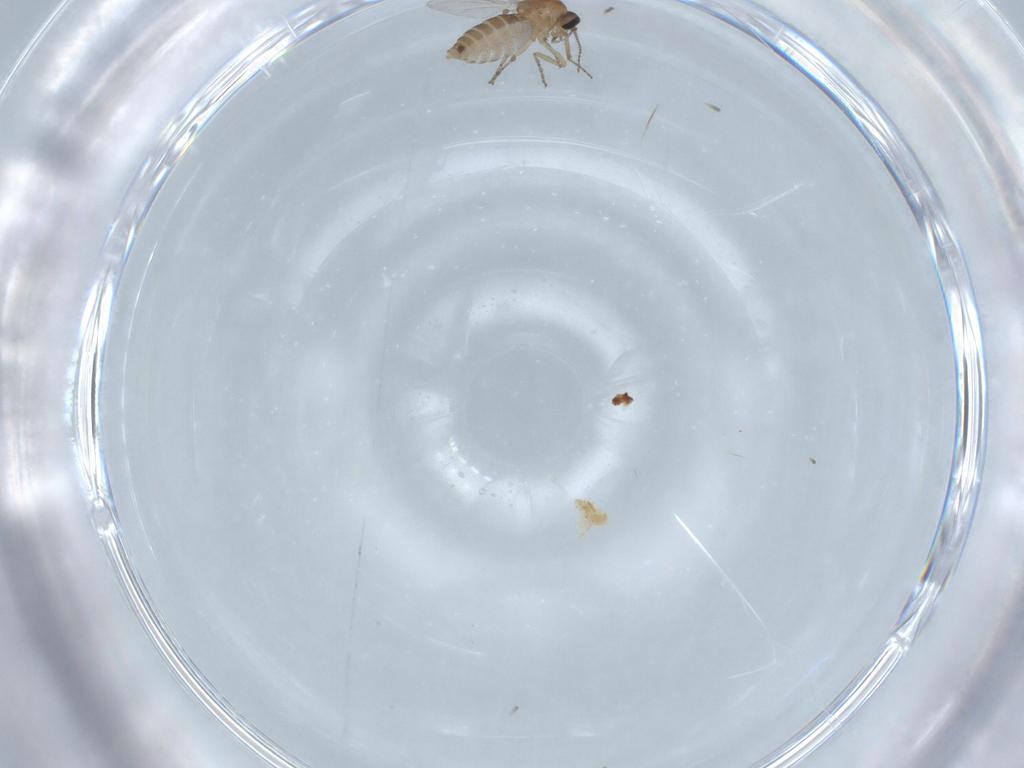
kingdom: Animalia
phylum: Arthropoda
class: Insecta
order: Diptera
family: Ceratopogonidae
